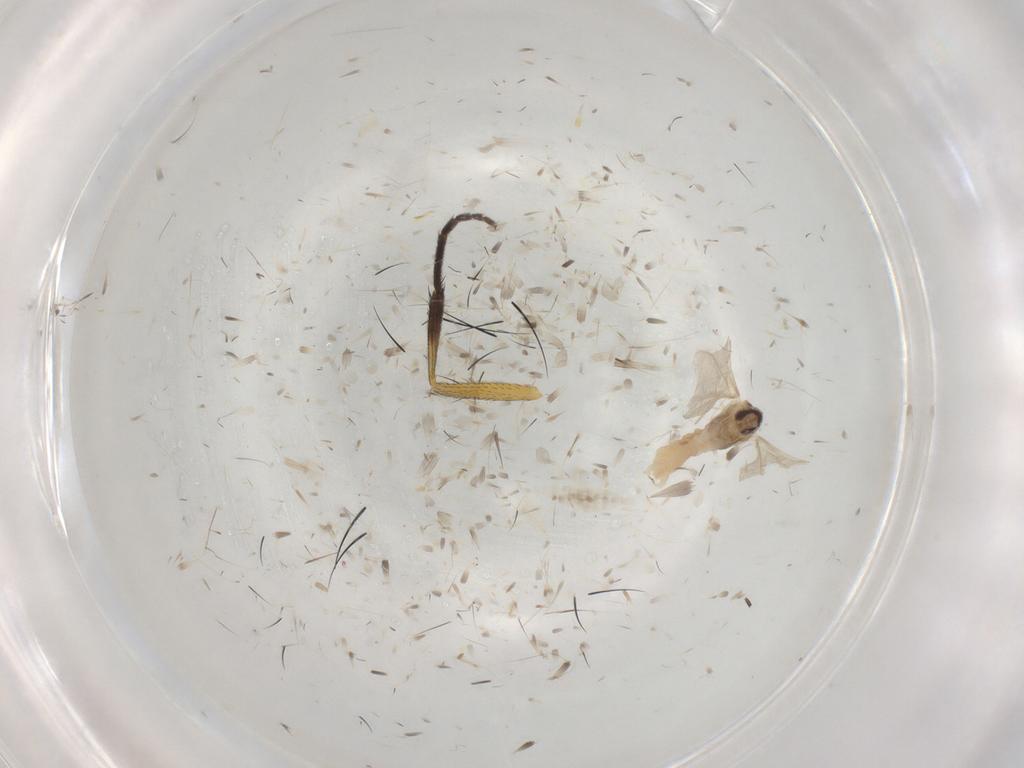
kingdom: Animalia
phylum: Arthropoda
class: Insecta
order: Diptera
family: Muscidae
